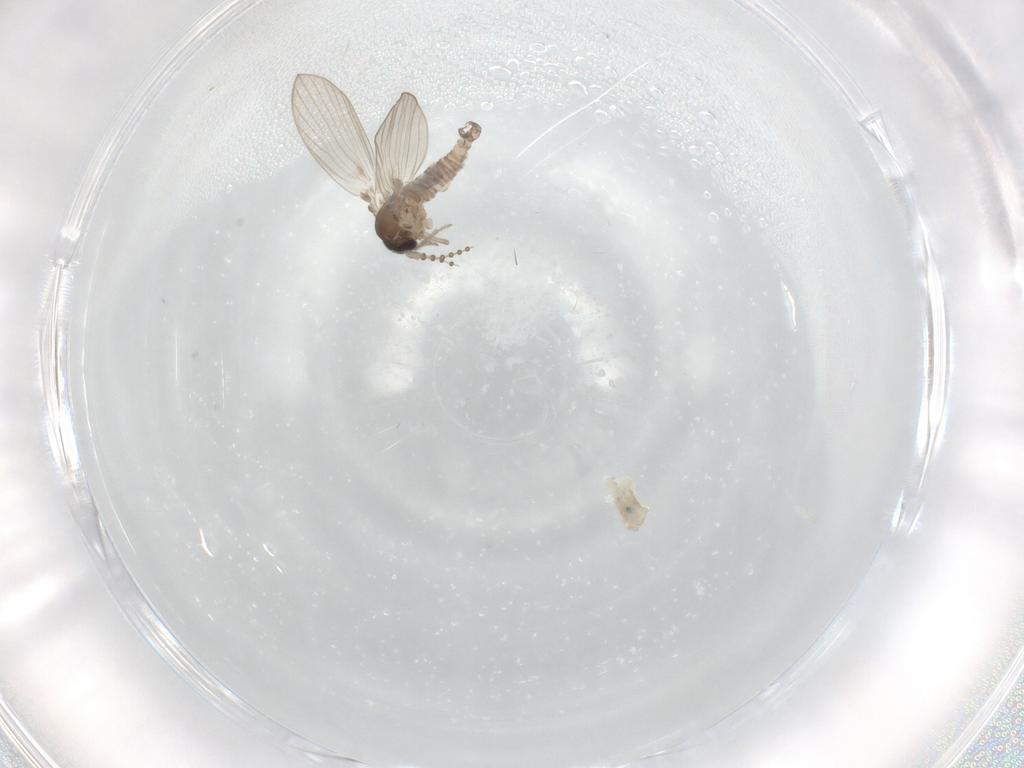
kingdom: Animalia
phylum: Arthropoda
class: Insecta
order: Diptera
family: Psychodidae
